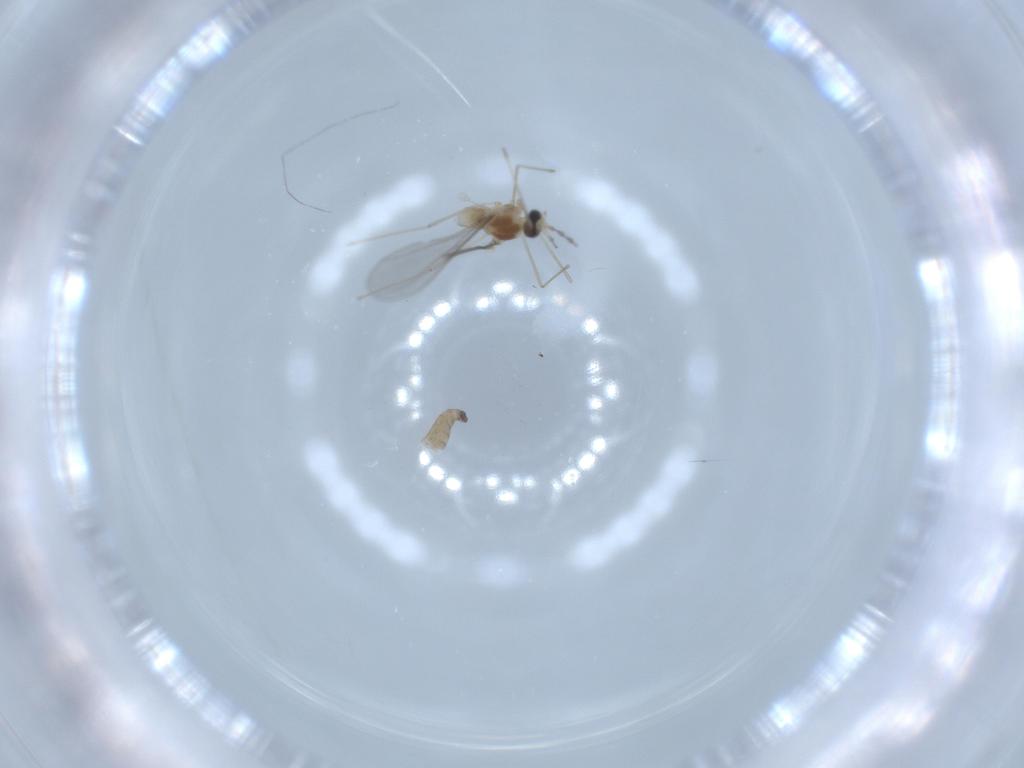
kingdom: Animalia
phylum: Arthropoda
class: Insecta
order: Diptera
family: Cecidomyiidae
